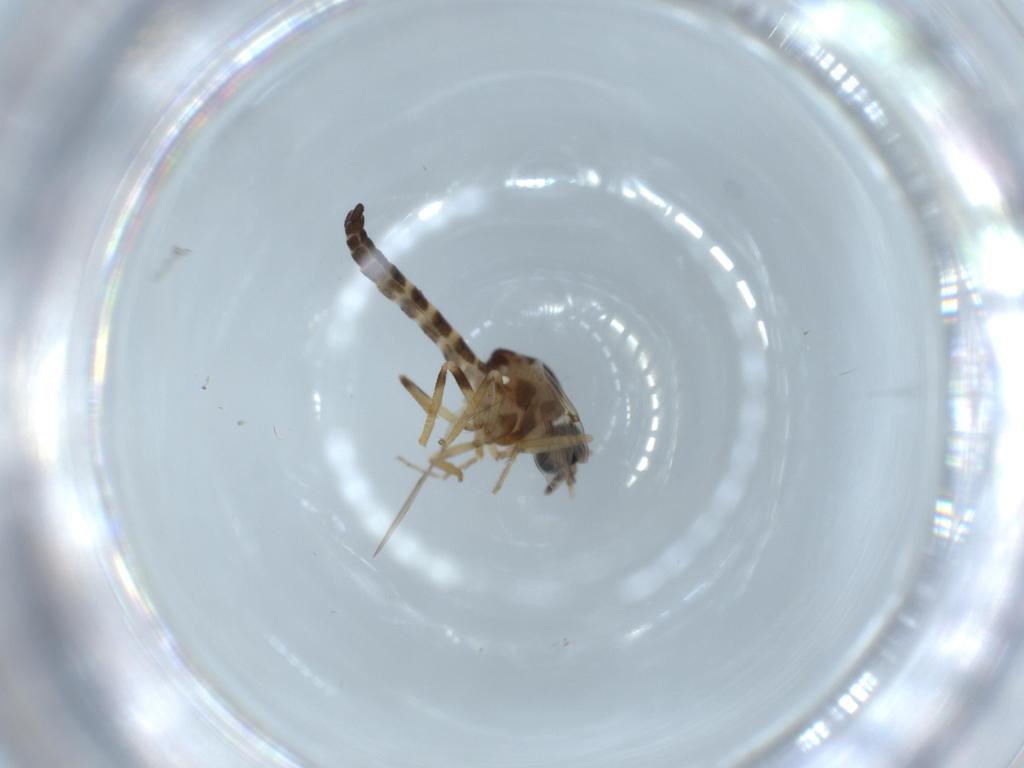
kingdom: Animalia
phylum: Arthropoda
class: Insecta
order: Diptera
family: Ceratopogonidae
